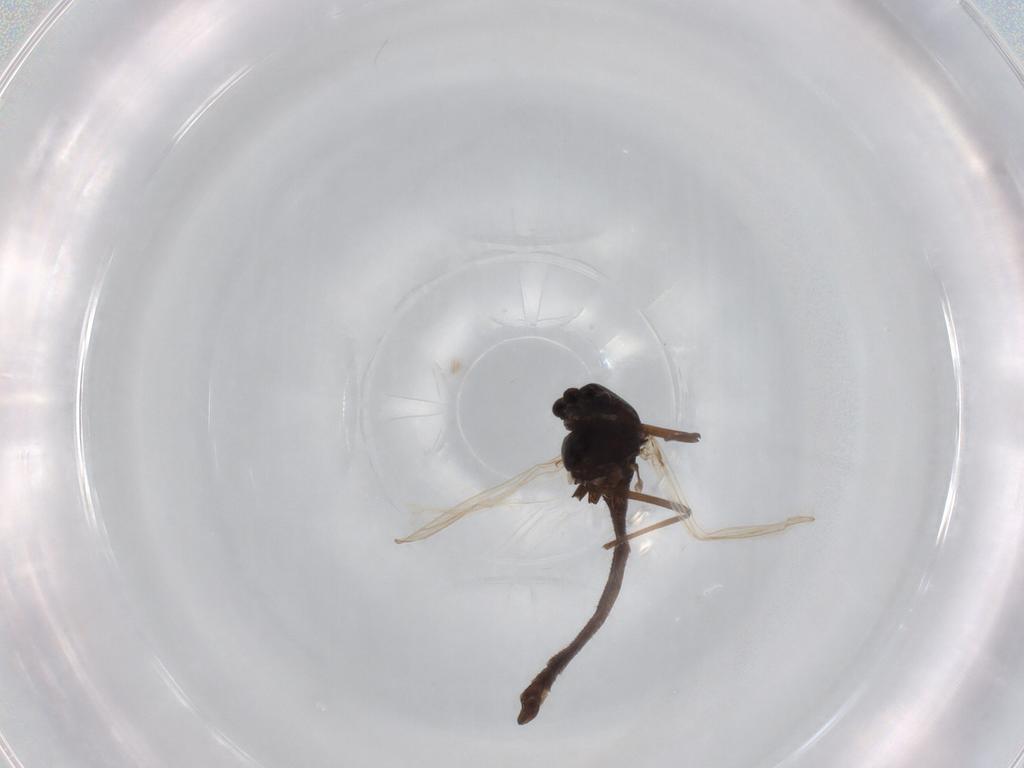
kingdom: Animalia
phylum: Arthropoda
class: Insecta
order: Diptera
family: Chironomidae
